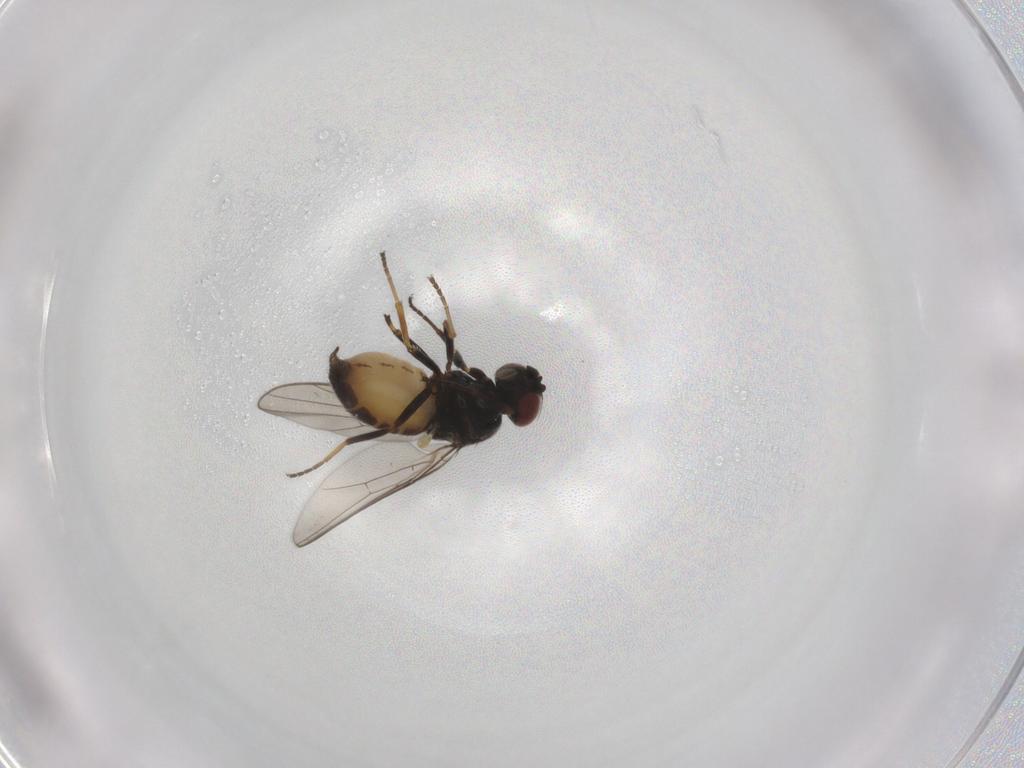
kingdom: Animalia
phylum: Arthropoda
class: Insecta
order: Diptera
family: Chloropidae
